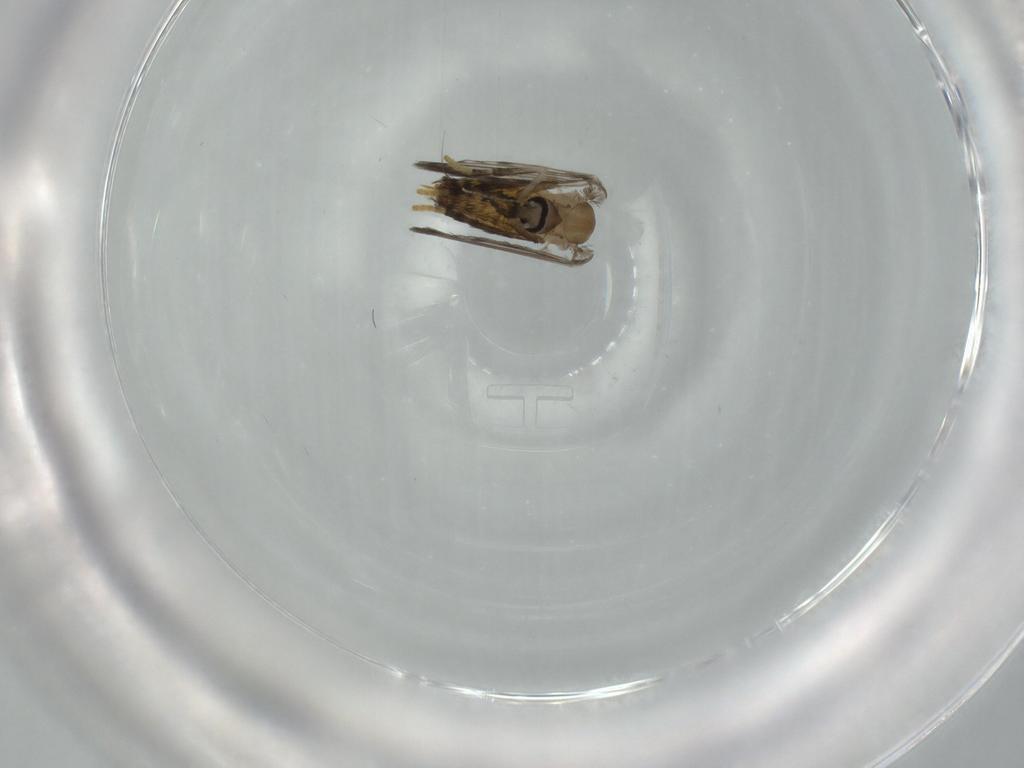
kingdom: Animalia
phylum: Arthropoda
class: Insecta
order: Diptera
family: Psychodidae
